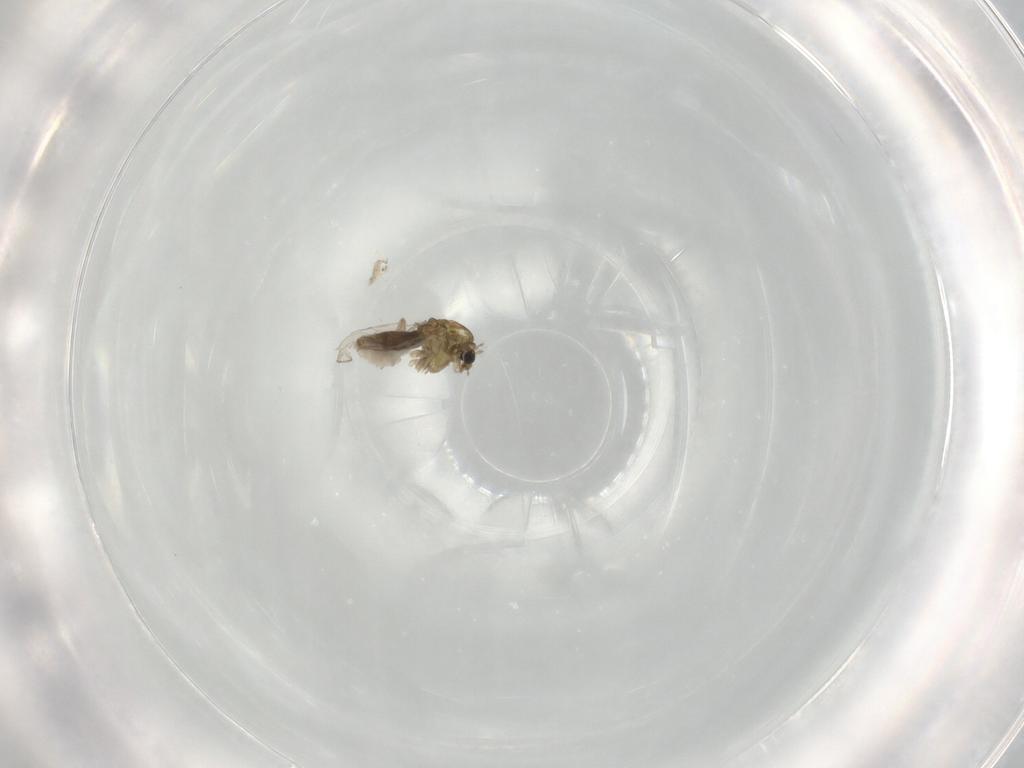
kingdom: Animalia
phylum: Arthropoda
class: Insecta
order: Diptera
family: Chironomidae
